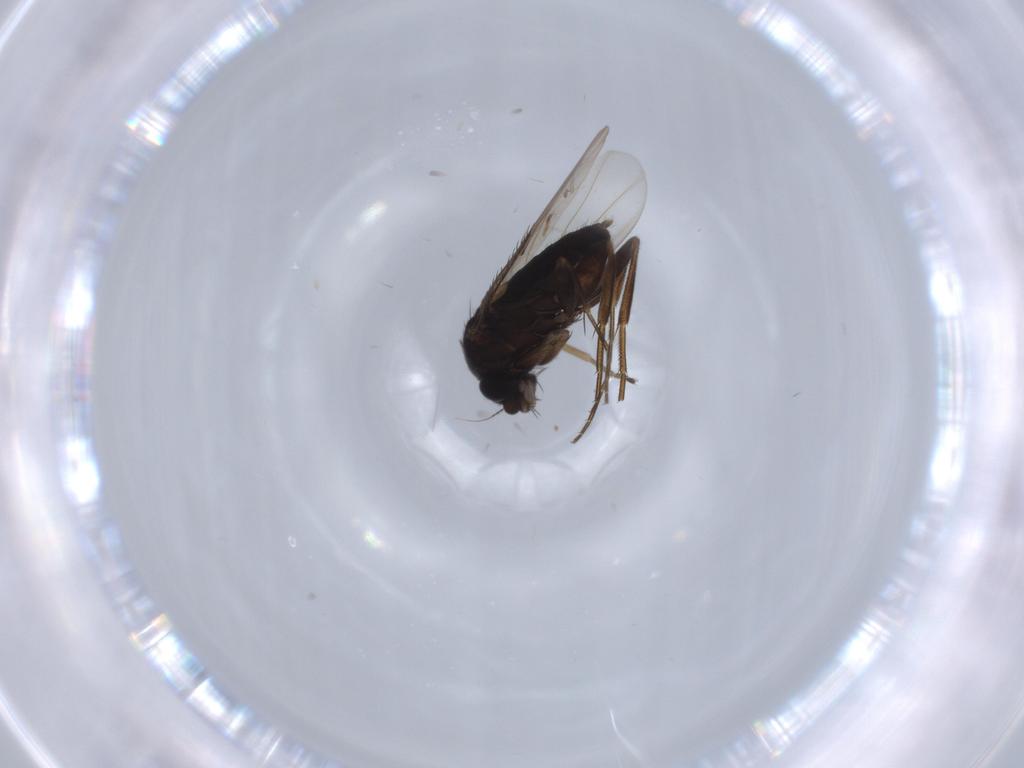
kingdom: Animalia
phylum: Arthropoda
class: Insecta
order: Diptera
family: Phoridae
